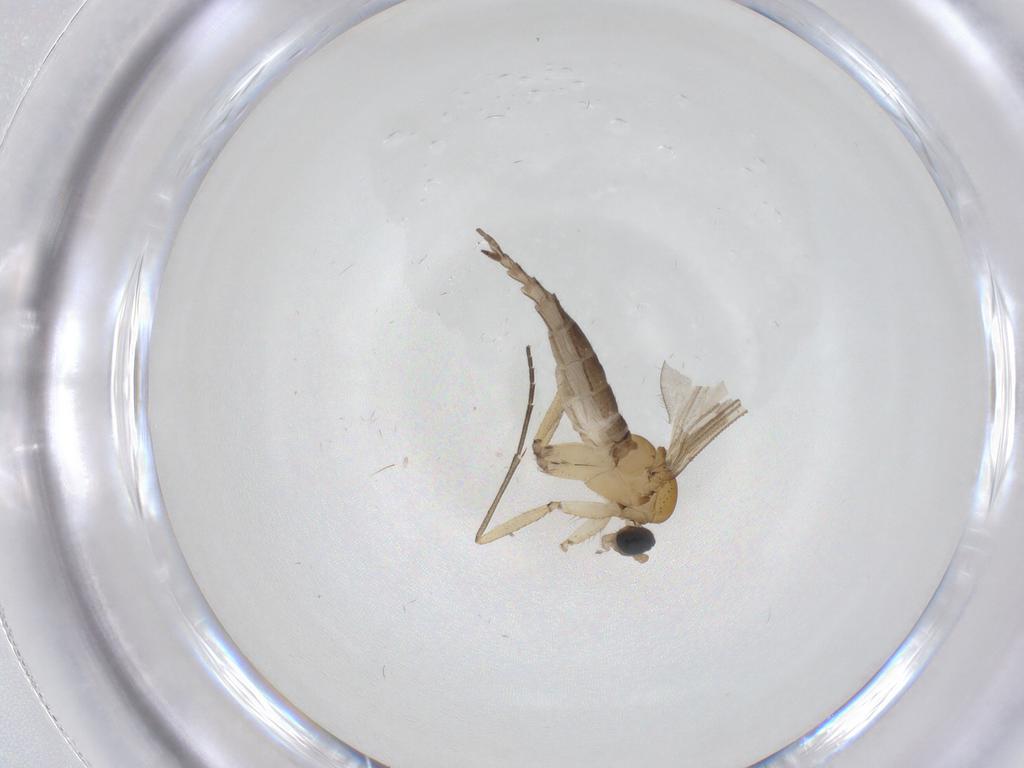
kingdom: Animalia
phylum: Arthropoda
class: Insecta
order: Diptera
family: Sciaridae
